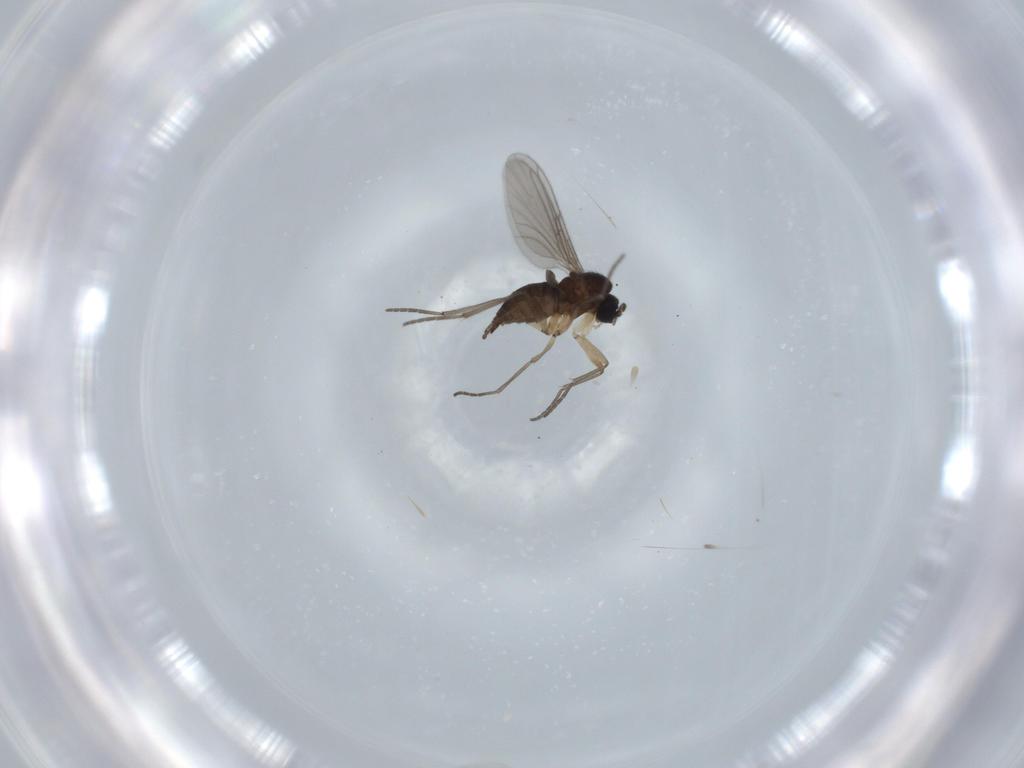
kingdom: Animalia
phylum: Arthropoda
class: Insecta
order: Diptera
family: Sciaridae
